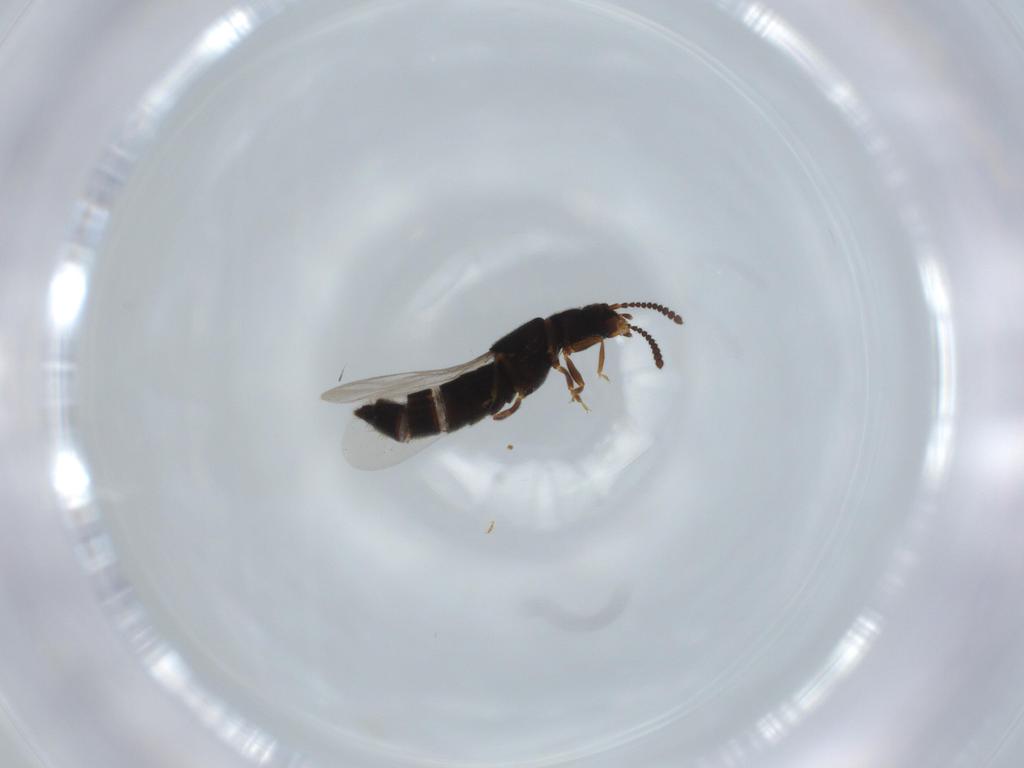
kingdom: Animalia
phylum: Arthropoda
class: Insecta
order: Coleoptera
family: Staphylinidae
